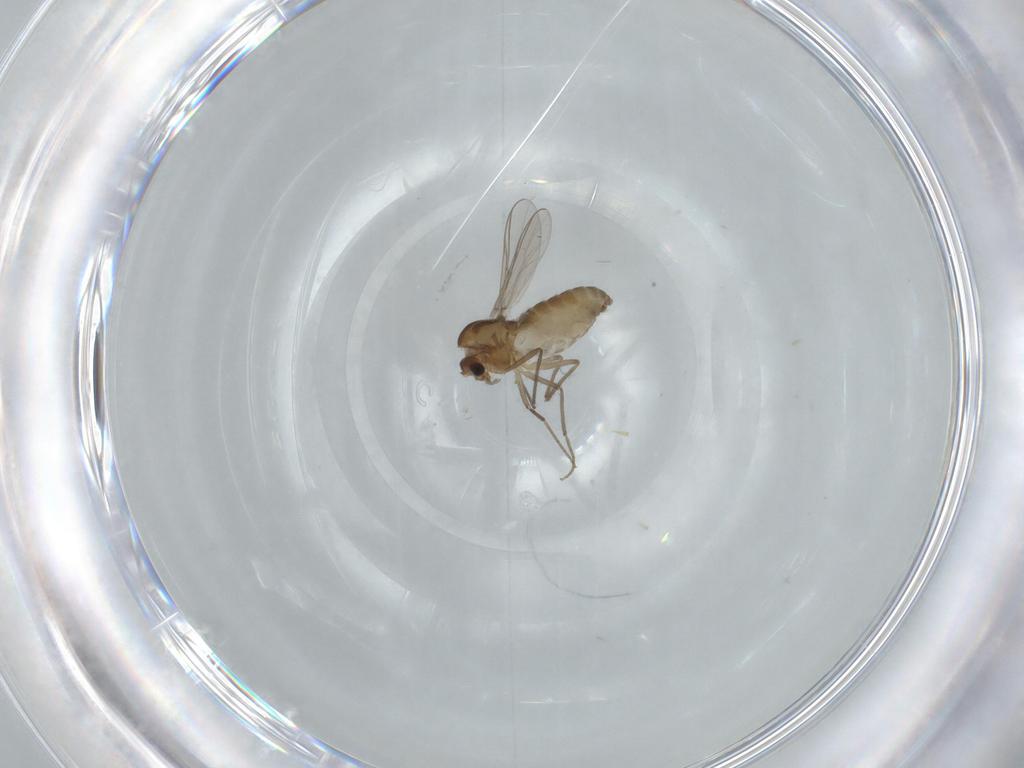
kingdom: Animalia
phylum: Arthropoda
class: Insecta
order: Diptera
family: Chironomidae
